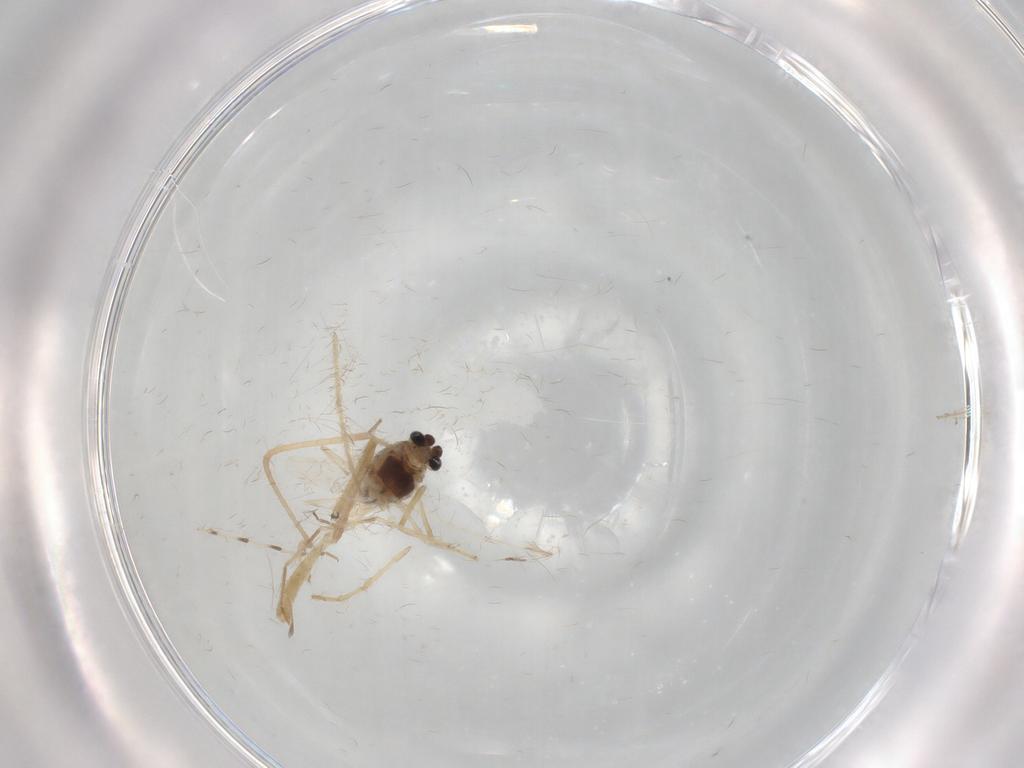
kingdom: Animalia
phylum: Arthropoda
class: Insecta
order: Diptera
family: Chironomidae
